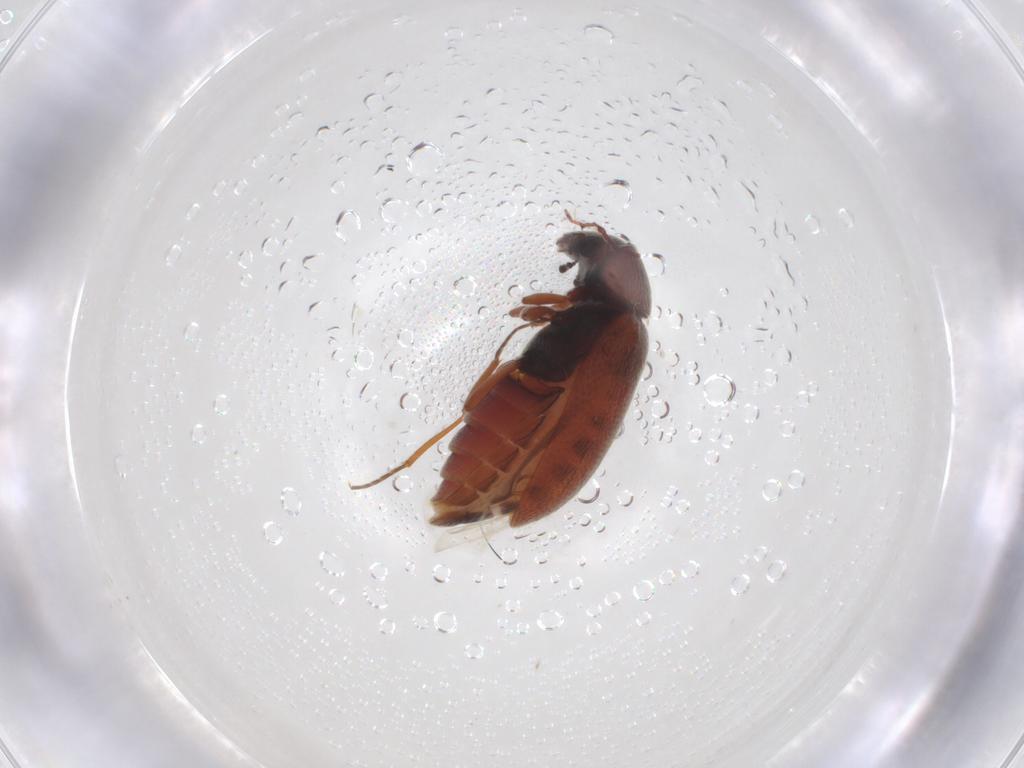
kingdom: Animalia
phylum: Arthropoda
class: Insecta
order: Coleoptera
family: Rhadalidae
